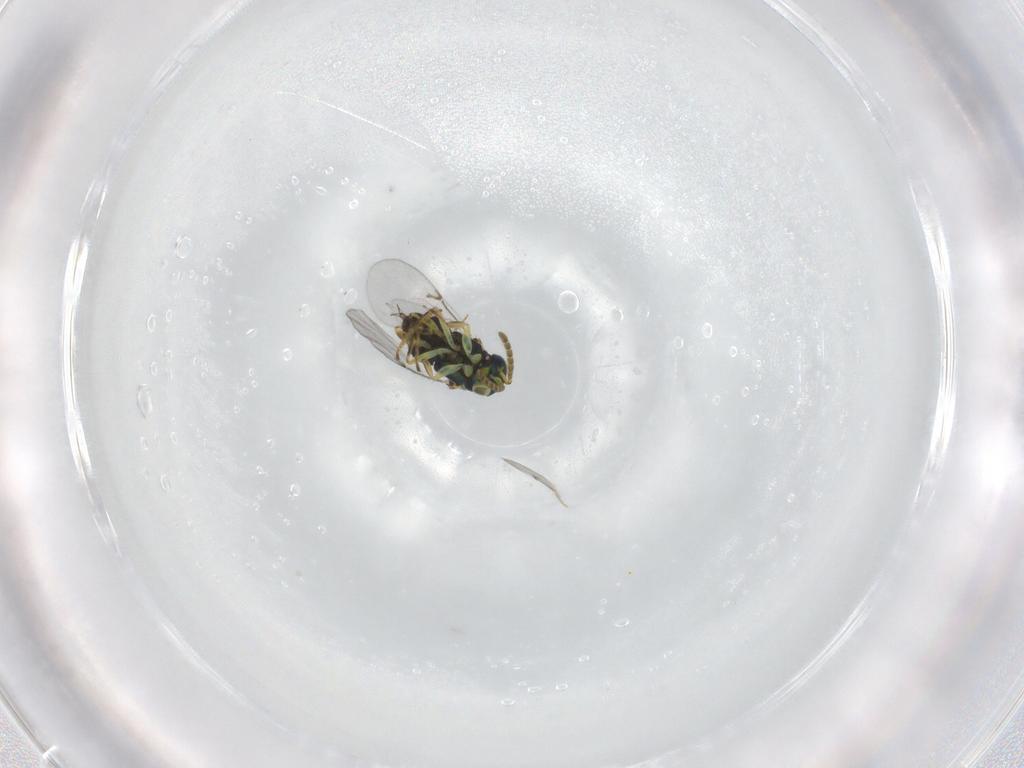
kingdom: Animalia
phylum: Arthropoda
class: Insecta
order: Hymenoptera
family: Encyrtidae
